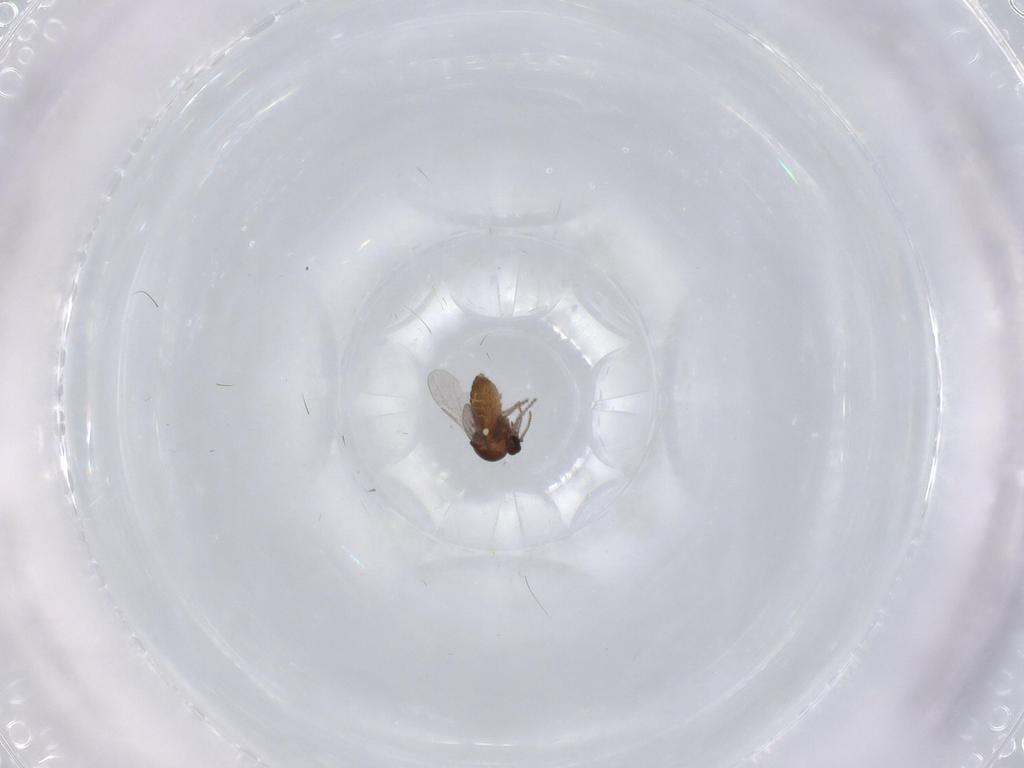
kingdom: Animalia
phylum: Arthropoda
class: Insecta
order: Diptera
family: Ceratopogonidae
